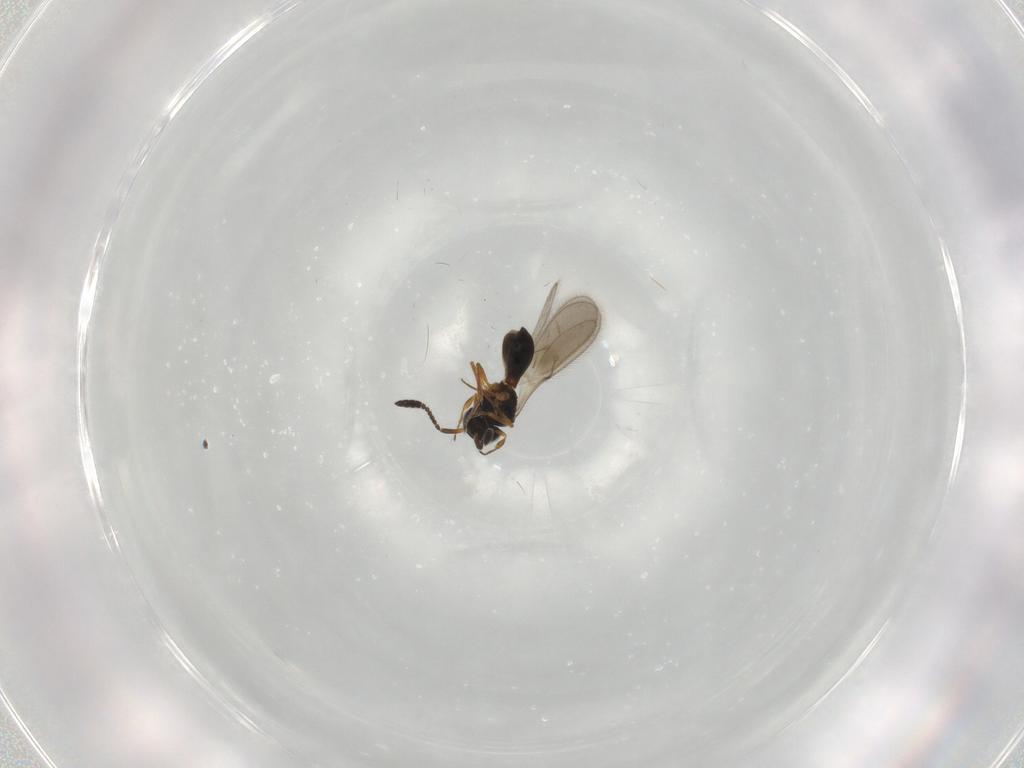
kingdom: Animalia
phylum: Arthropoda
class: Insecta
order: Hymenoptera
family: Scelionidae
